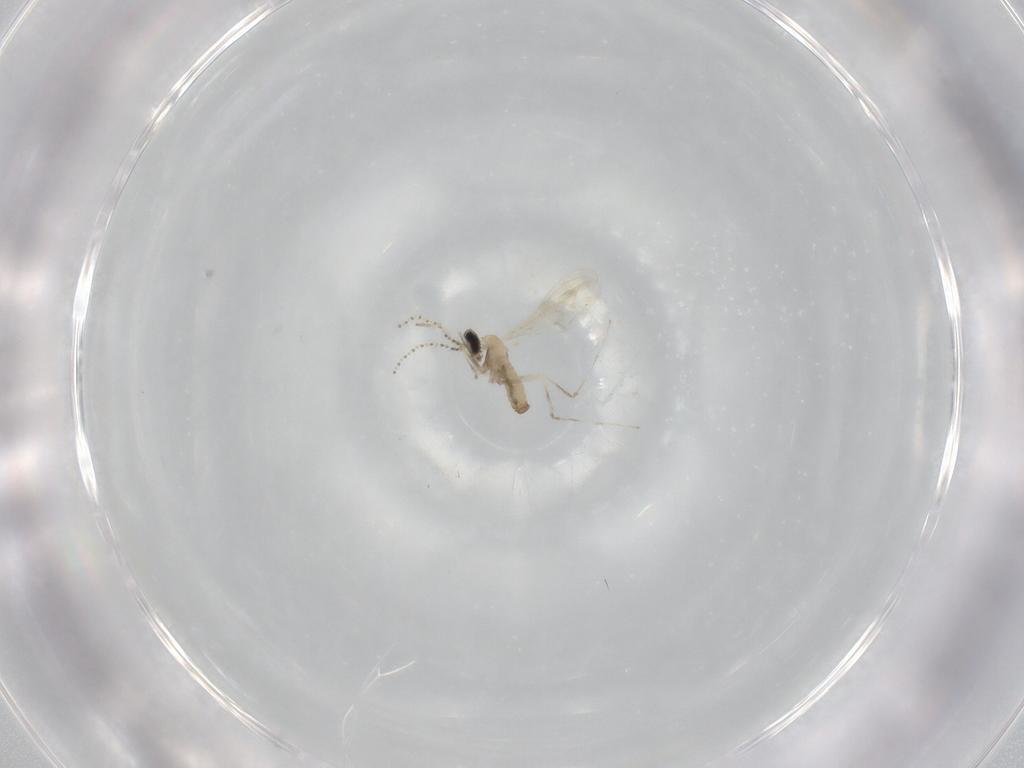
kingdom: Animalia
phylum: Arthropoda
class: Insecta
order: Diptera
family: Cecidomyiidae
